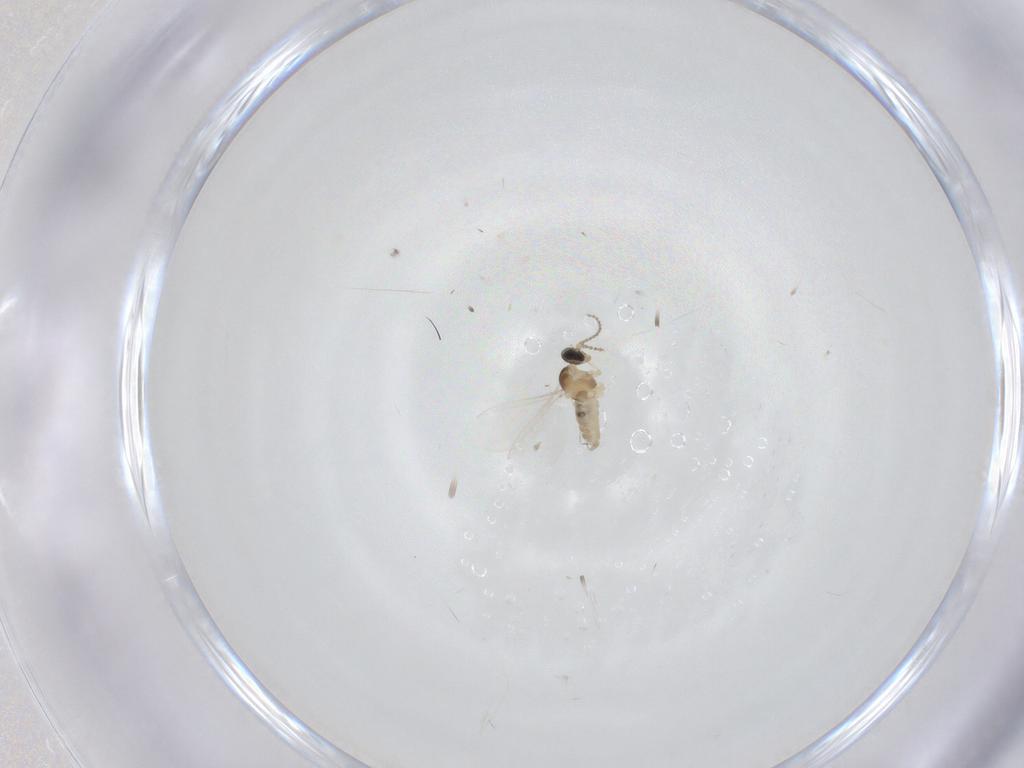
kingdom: Animalia
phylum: Arthropoda
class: Insecta
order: Diptera
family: Cecidomyiidae
